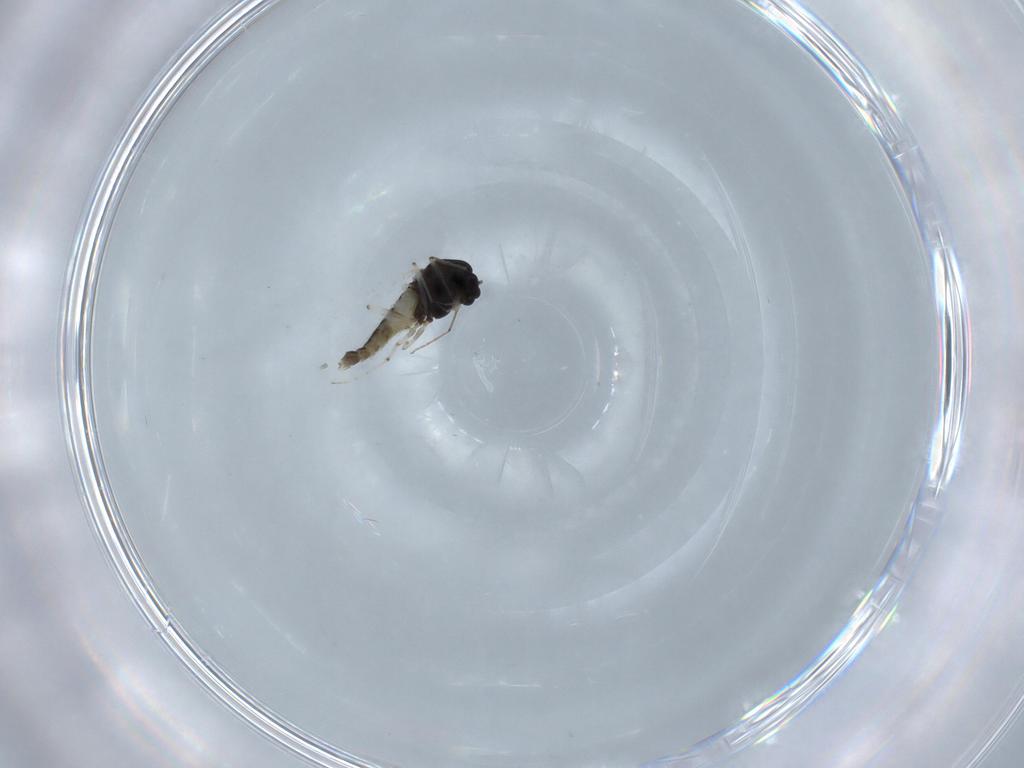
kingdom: Animalia
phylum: Arthropoda
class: Insecta
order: Diptera
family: Chironomidae
